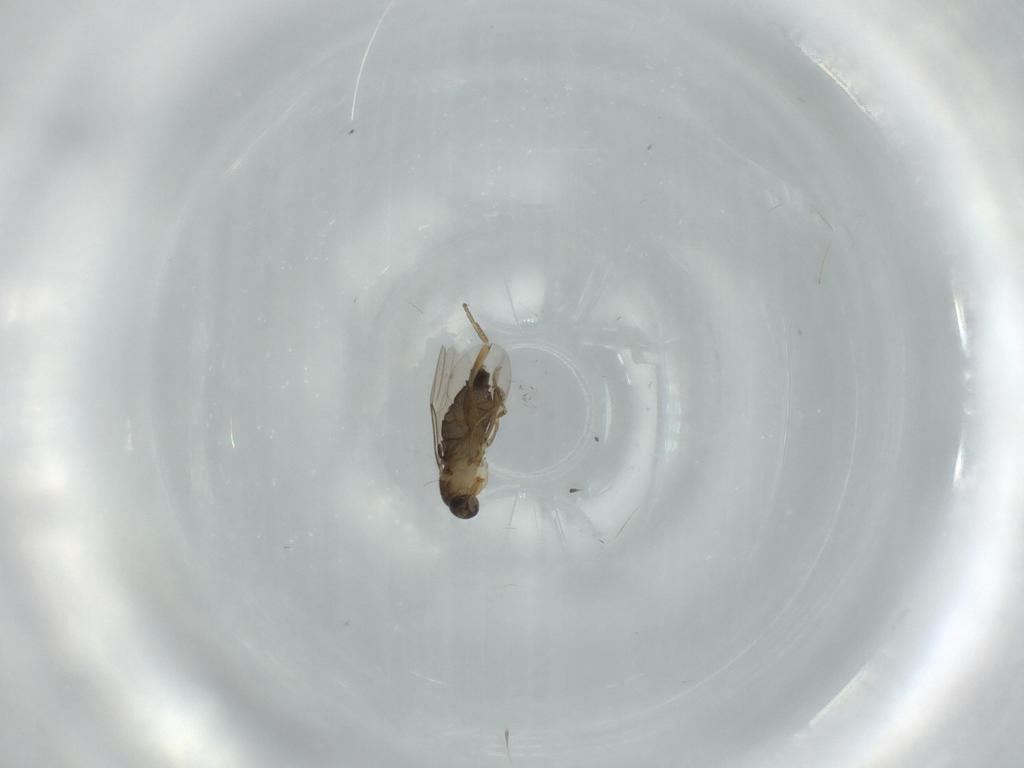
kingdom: Animalia
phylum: Arthropoda
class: Insecta
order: Diptera
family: Phoridae
